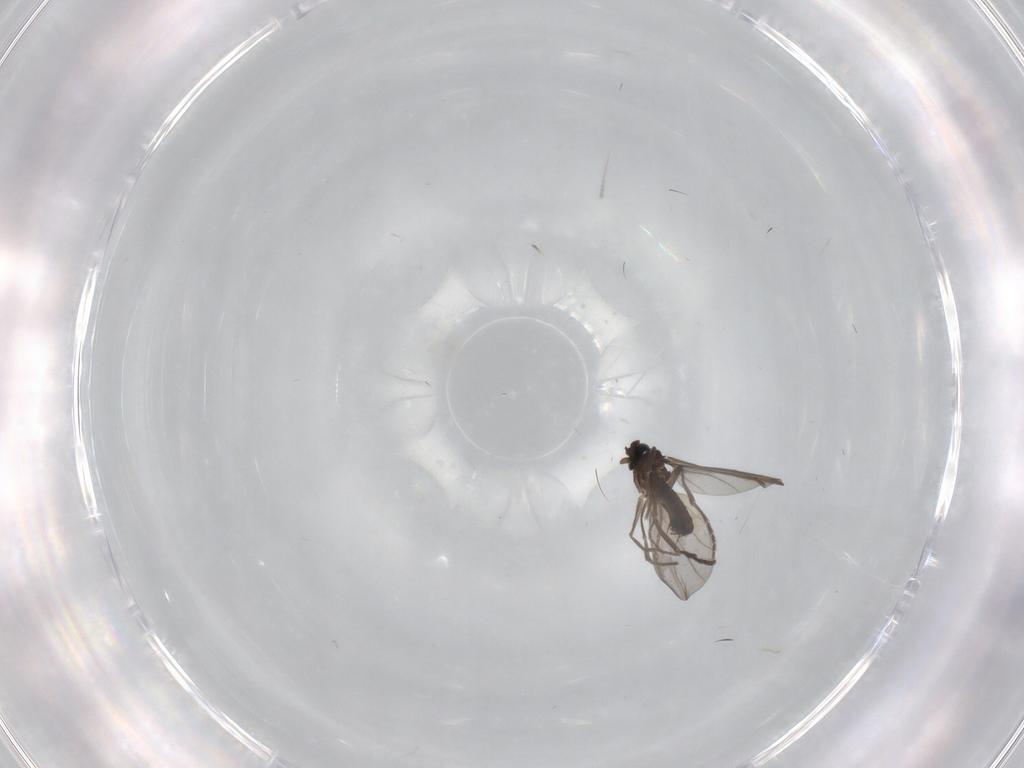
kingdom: Animalia
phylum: Arthropoda
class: Insecta
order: Diptera
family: Phoridae
